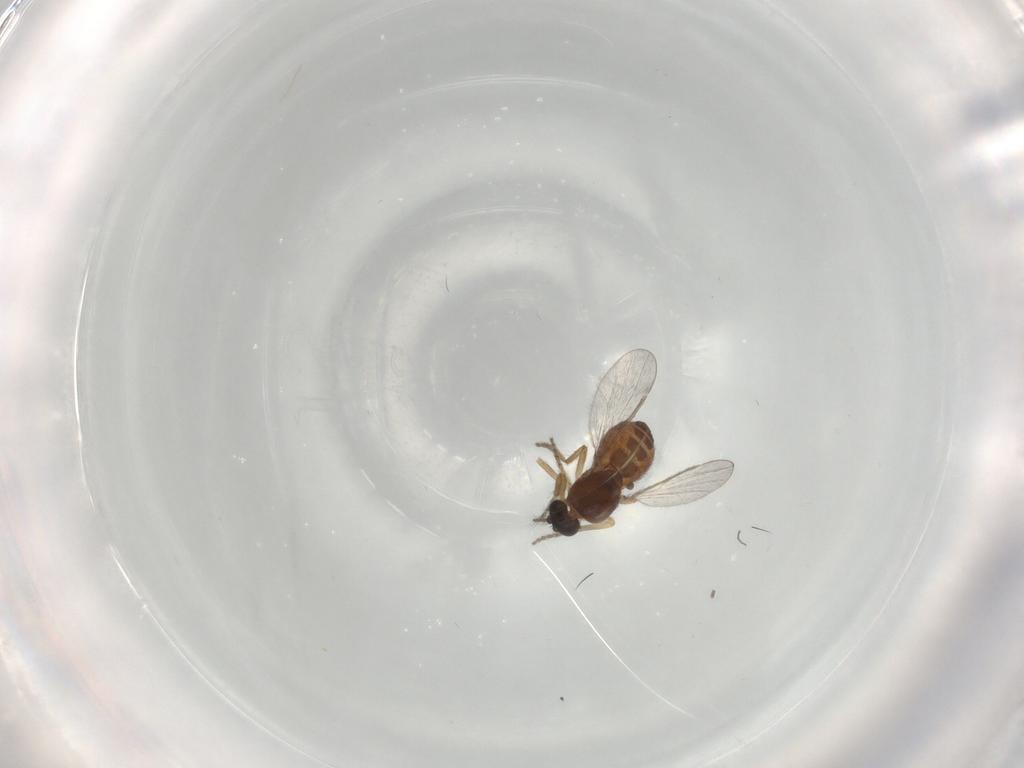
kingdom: Animalia
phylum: Arthropoda
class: Insecta
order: Diptera
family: Ceratopogonidae
